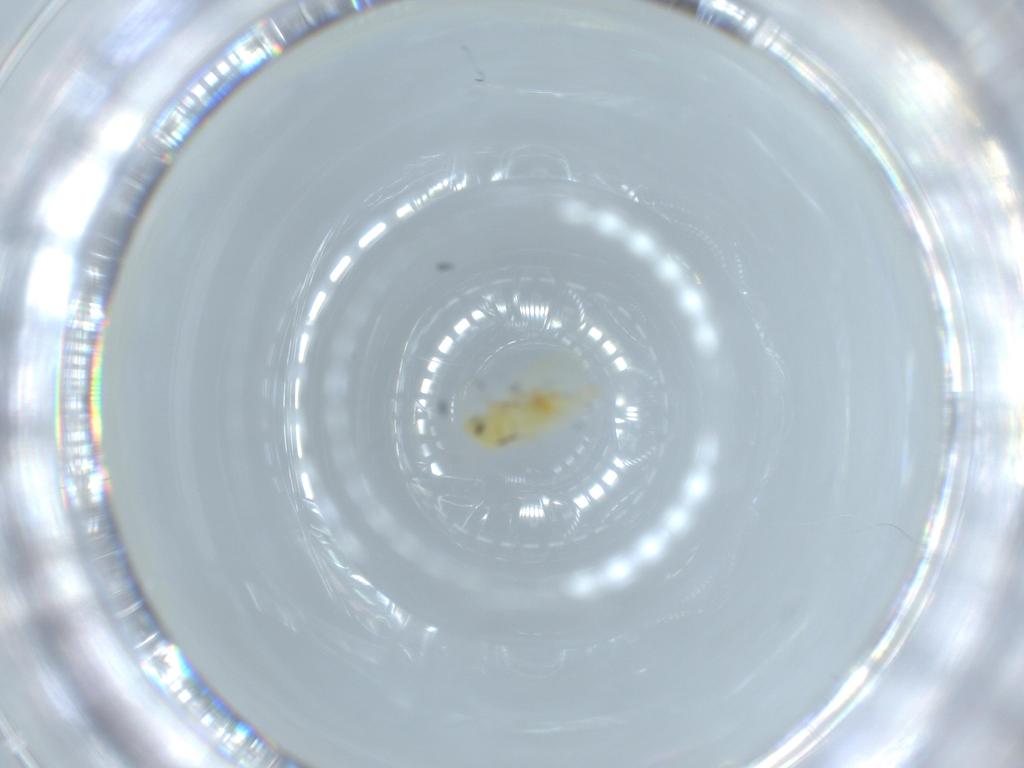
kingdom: Animalia
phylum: Arthropoda
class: Insecta
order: Hemiptera
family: Aleyrodidae
